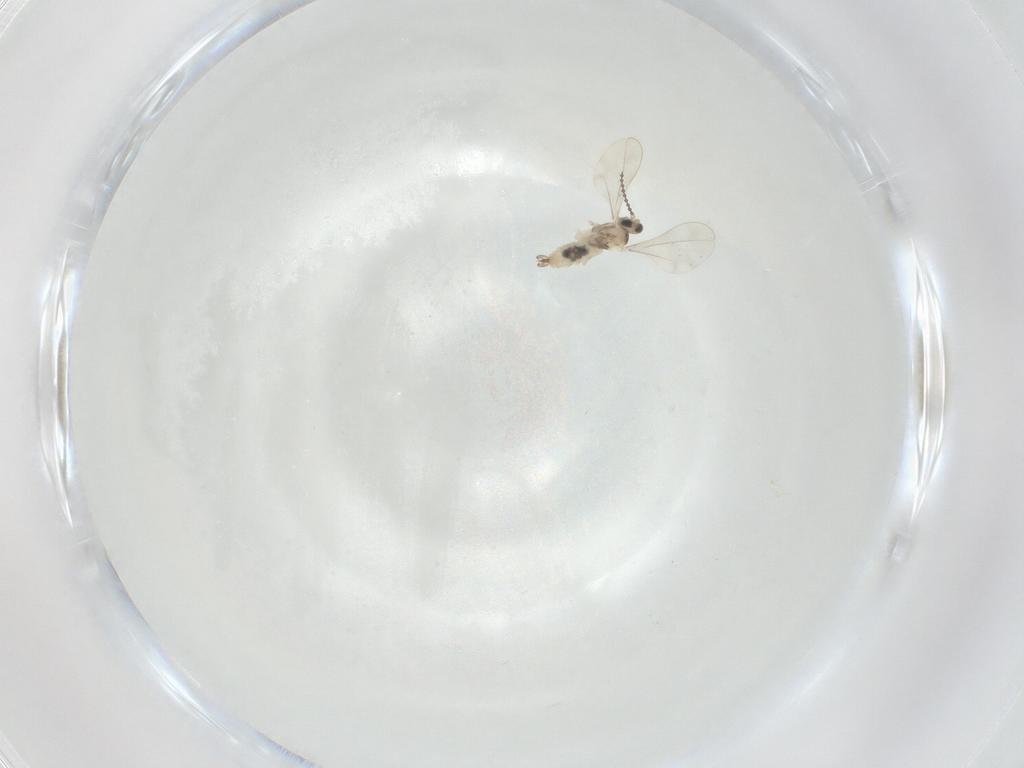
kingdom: Animalia
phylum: Arthropoda
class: Insecta
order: Diptera
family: Cecidomyiidae
